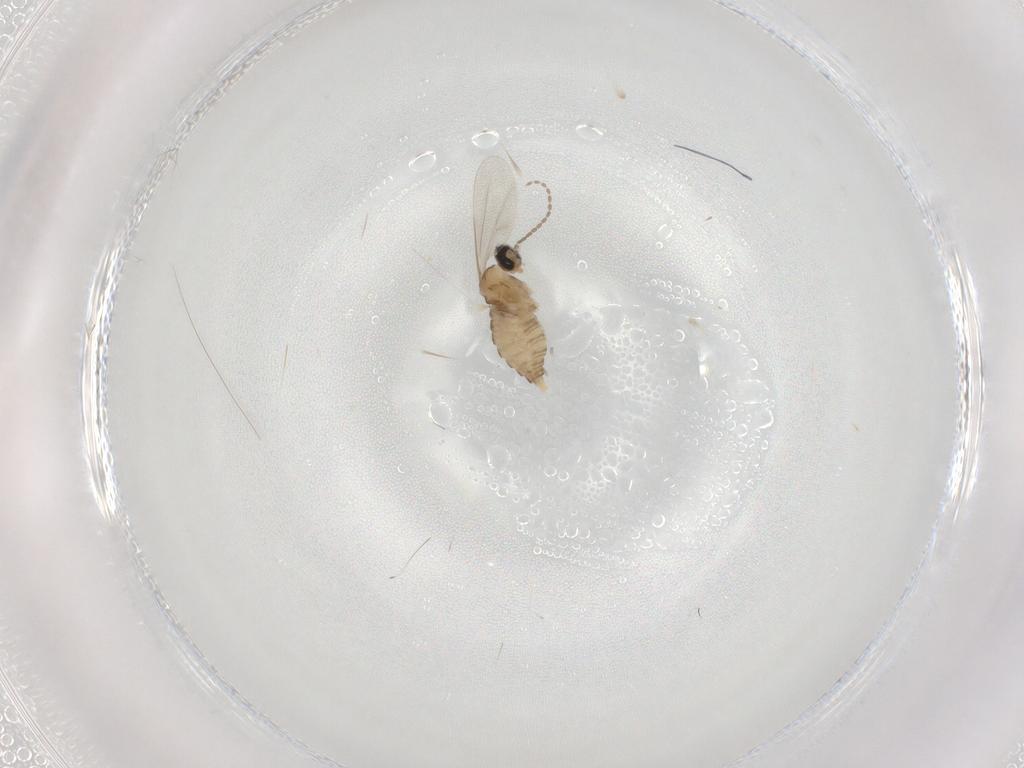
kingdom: Animalia
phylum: Arthropoda
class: Insecta
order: Diptera
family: Cecidomyiidae
